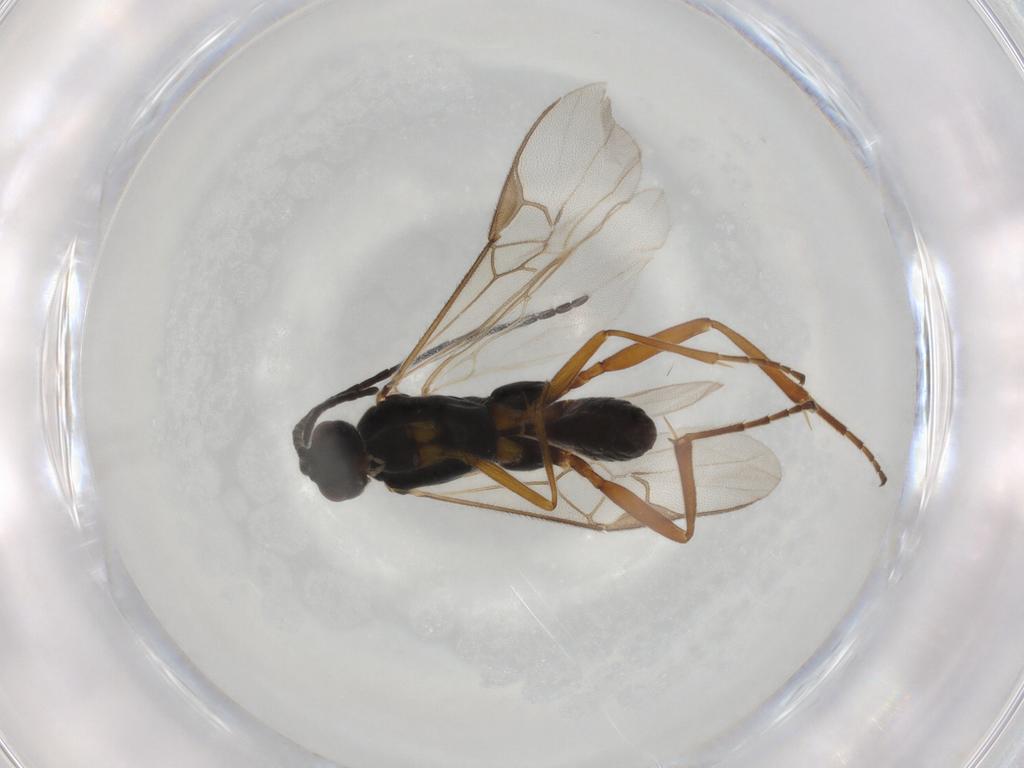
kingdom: Animalia
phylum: Arthropoda
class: Insecta
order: Hymenoptera
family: Braconidae
